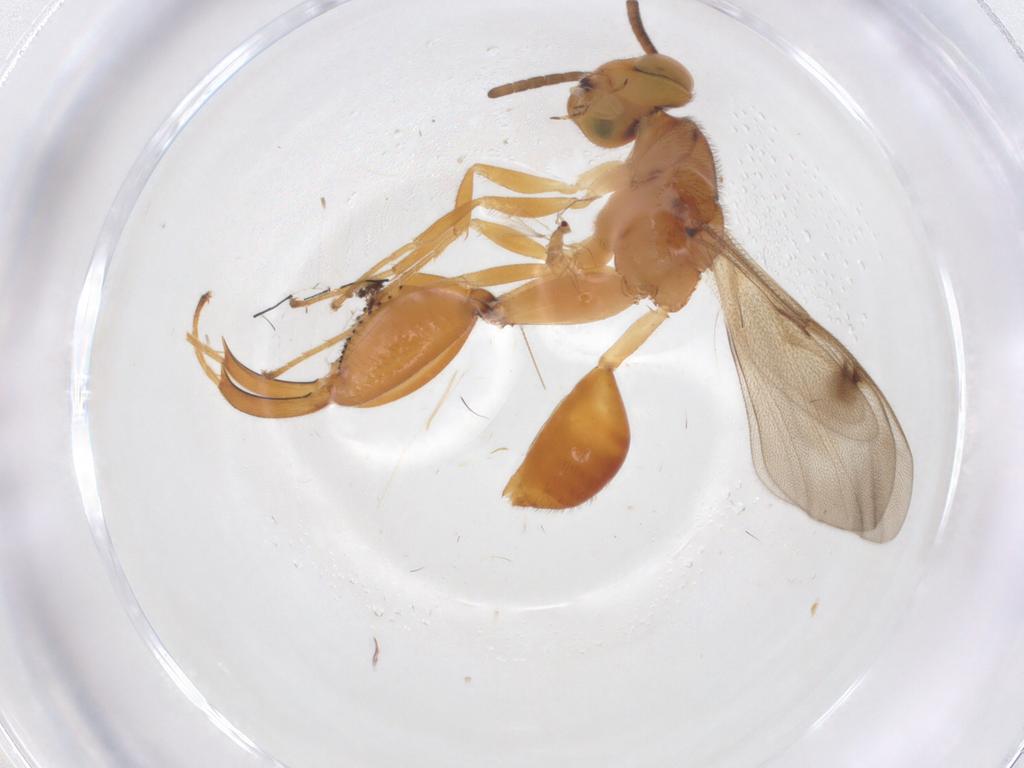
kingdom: Animalia
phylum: Arthropoda
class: Insecta
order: Hymenoptera
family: Chalcididae
